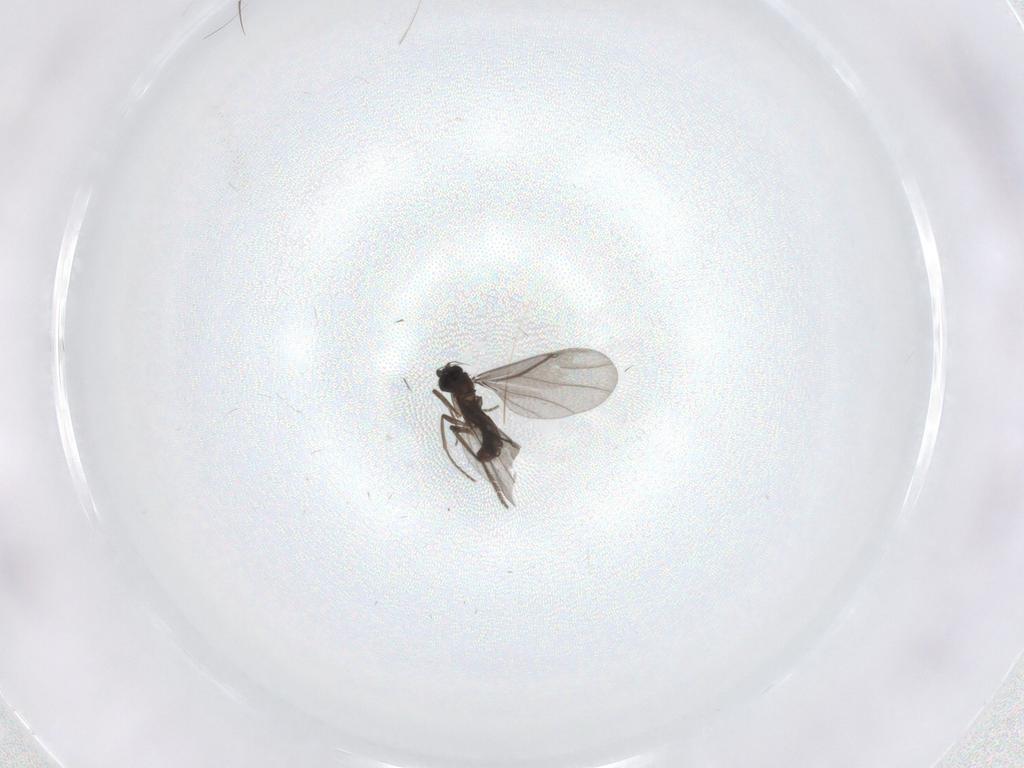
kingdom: Animalia
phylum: Arthropoda
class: Insecta
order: Diptera
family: Phoridae
